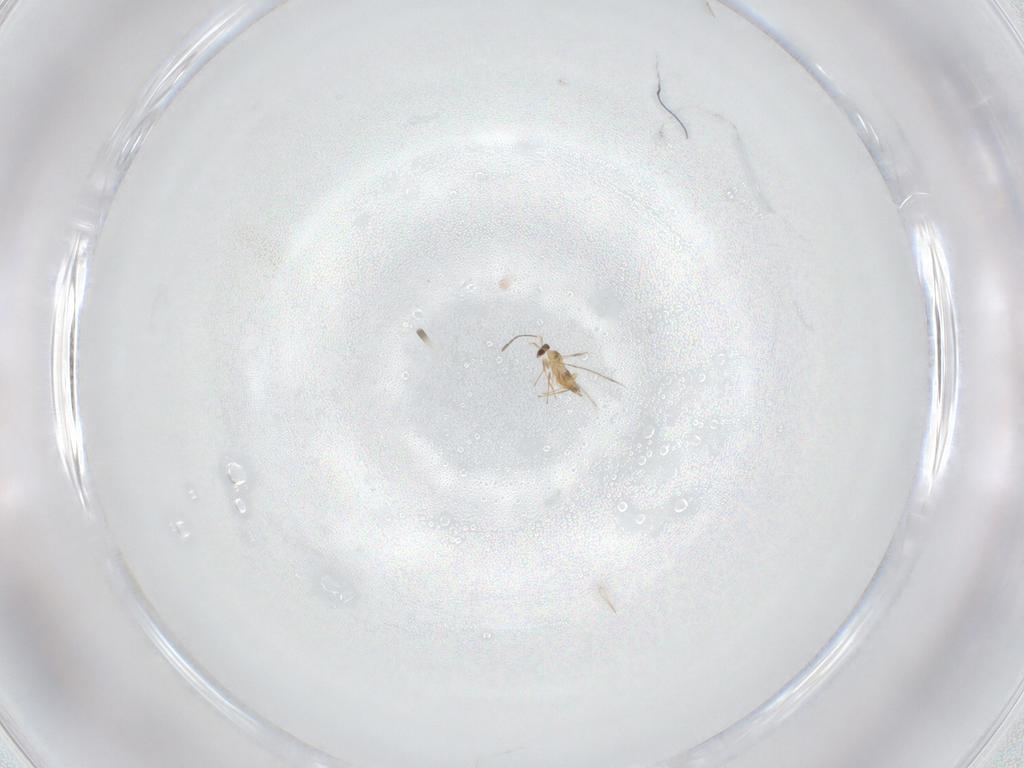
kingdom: Animalia
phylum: Arthropoda
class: Insecta
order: Hymenoptera
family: Mymaridae
